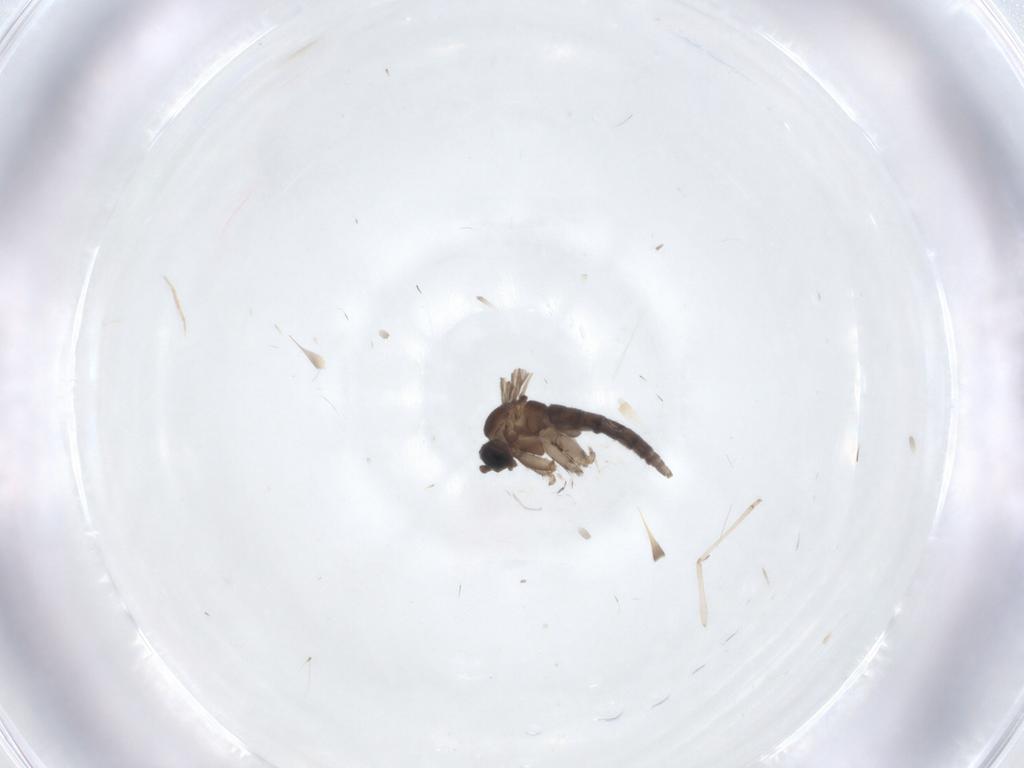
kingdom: Animalia
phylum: Arthropoda
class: Insecta
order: Diptera
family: Psychodidae
